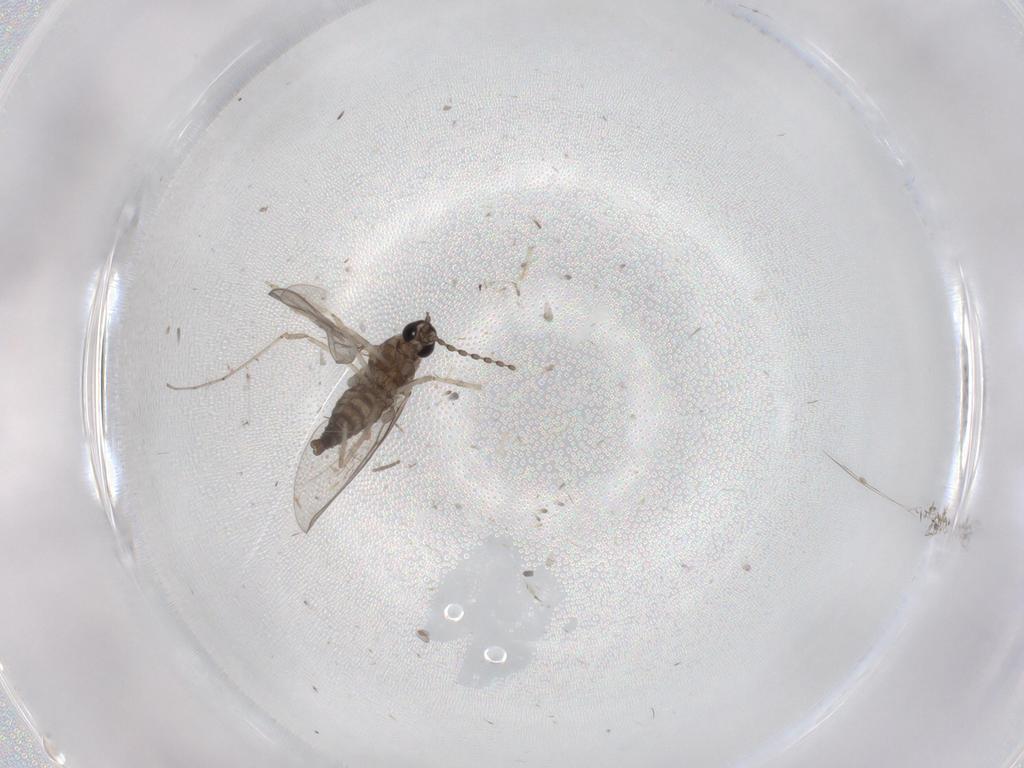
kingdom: Animalia
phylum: Arthropoda
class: Insecta
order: Diptera
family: Cecidomyiidae
